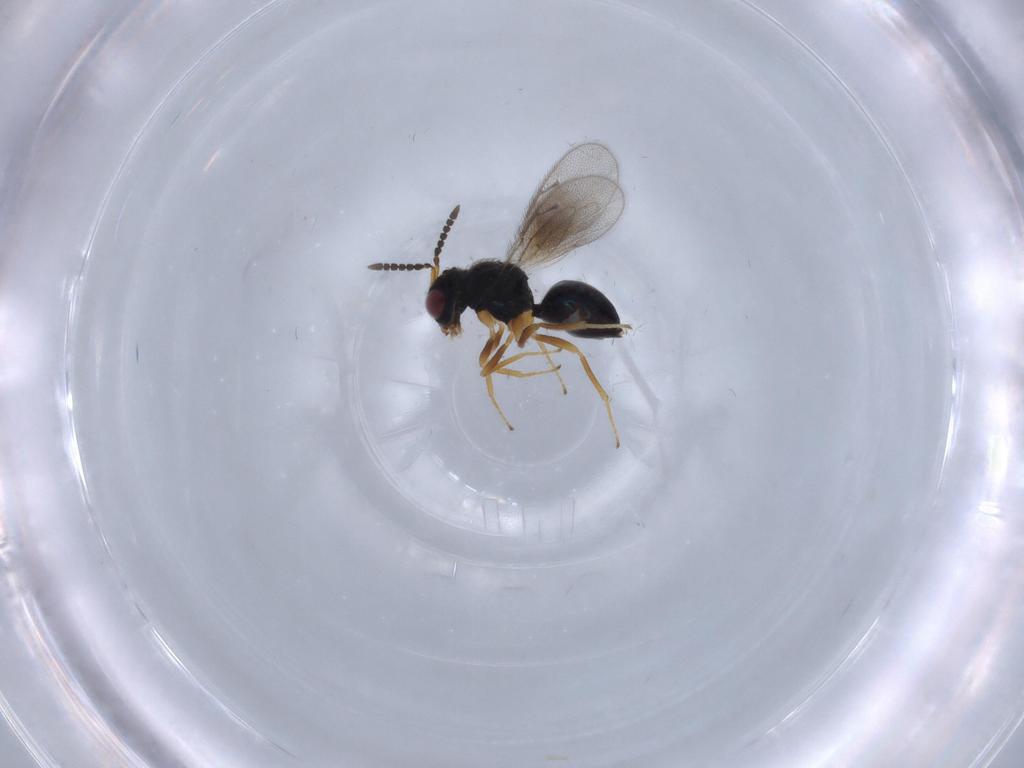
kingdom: Animalia
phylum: Arthropoda
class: Insecta
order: Hymenoptera
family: Pteromalidae
